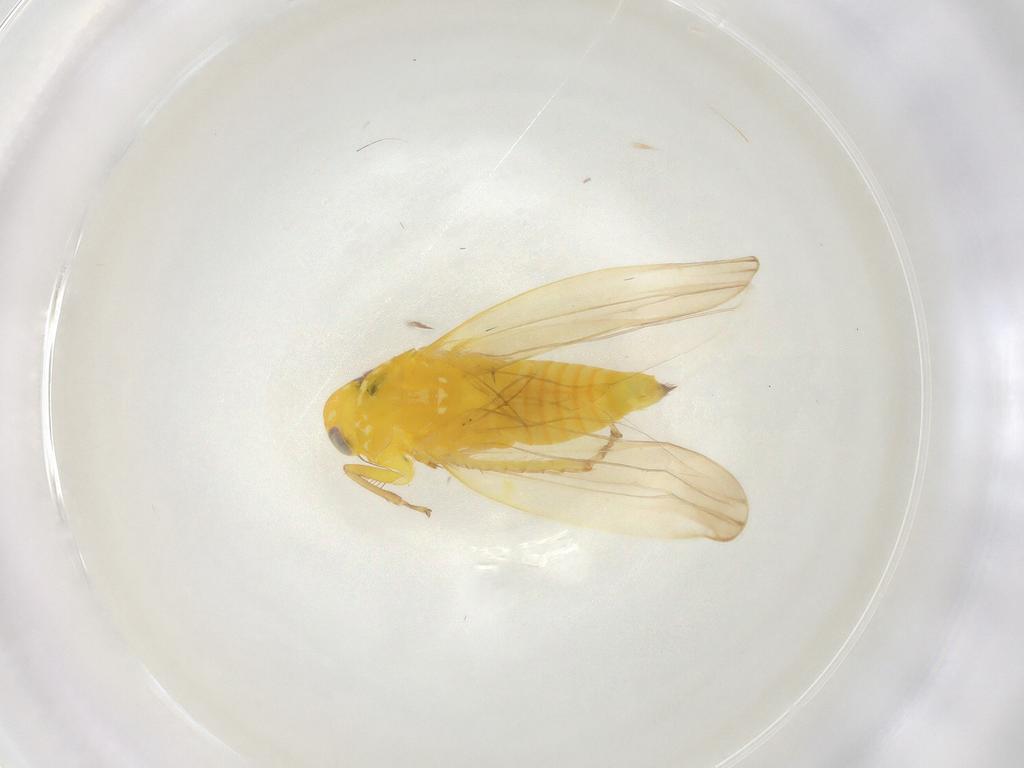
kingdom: Animalia
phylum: Arthropoda
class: Insecta
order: Hemiptera
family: Cicadellidae
